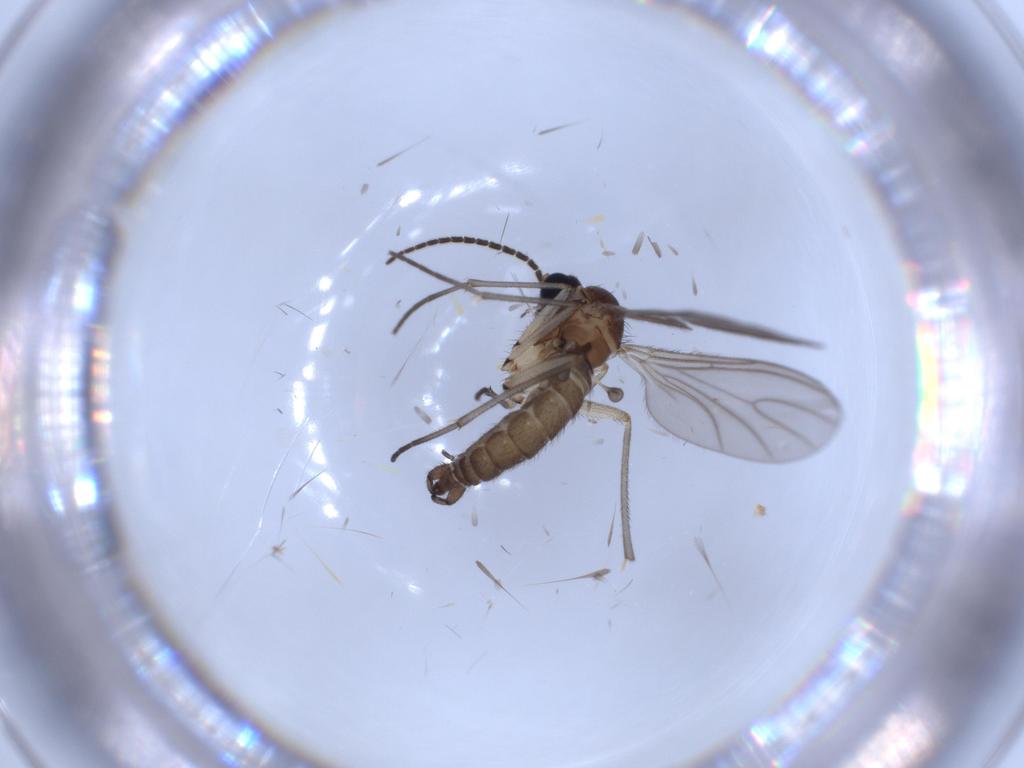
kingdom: Animalia
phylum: Arthropoda
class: Insecta
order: Diptera
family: Sciaridae
